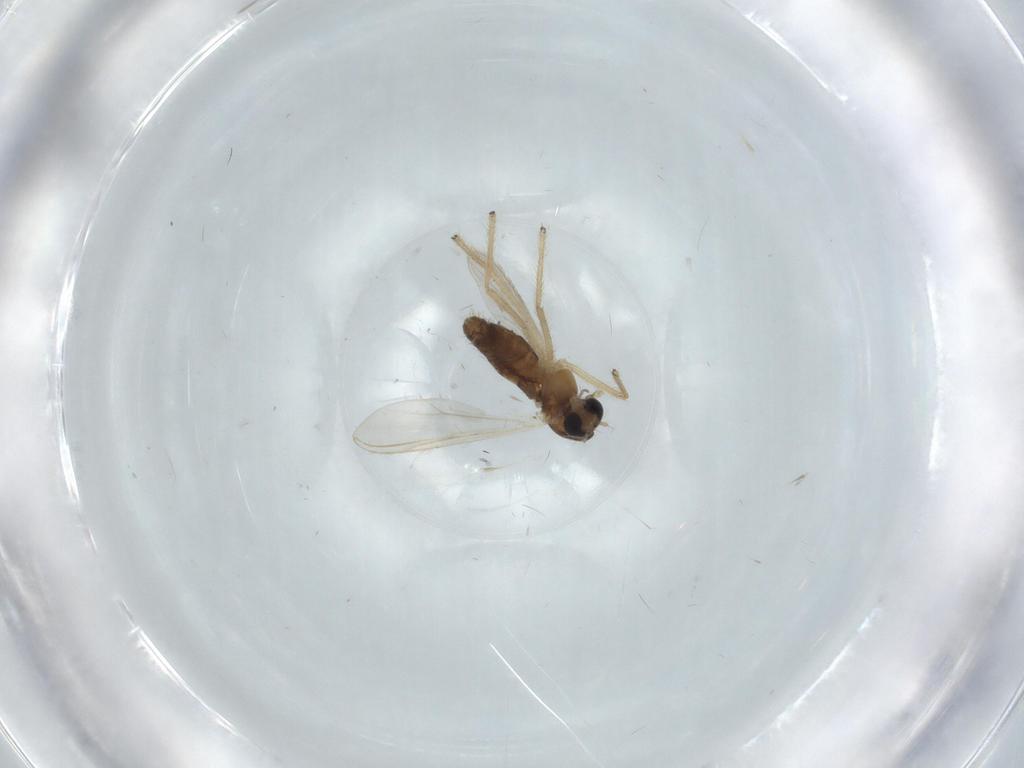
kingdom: Animalia
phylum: Arthropoda
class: Insecta
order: Diptera
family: Chironomidae
